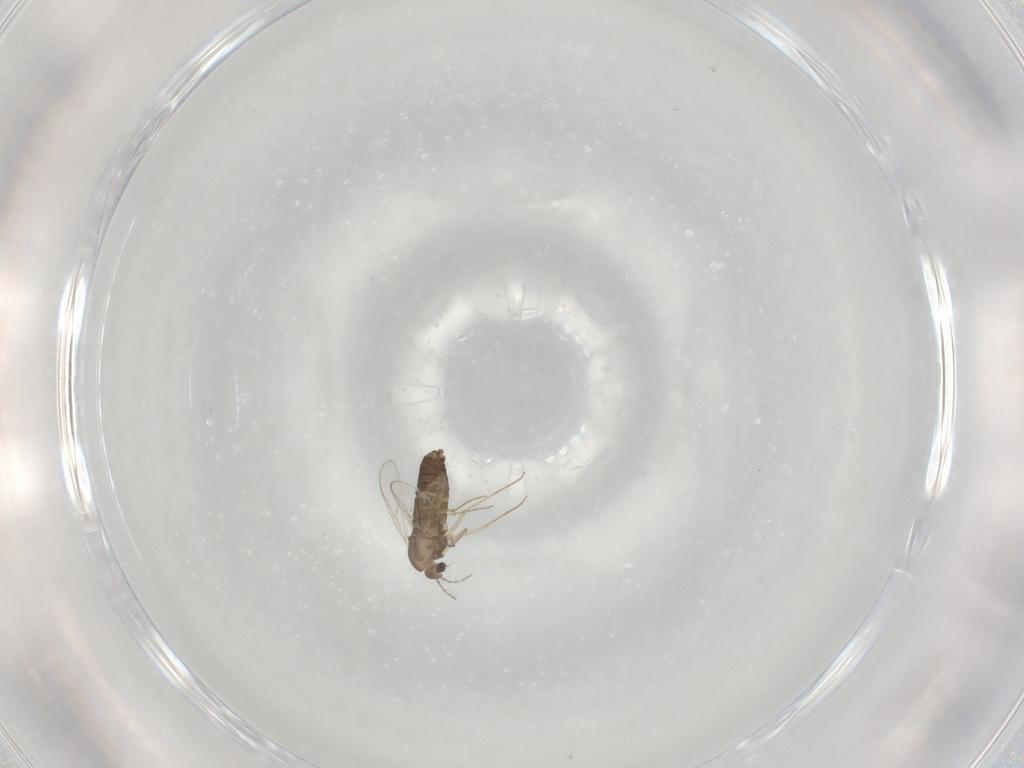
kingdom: Animalia
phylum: Arthropoda
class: Insecta
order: Diptera
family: Chironomidae
